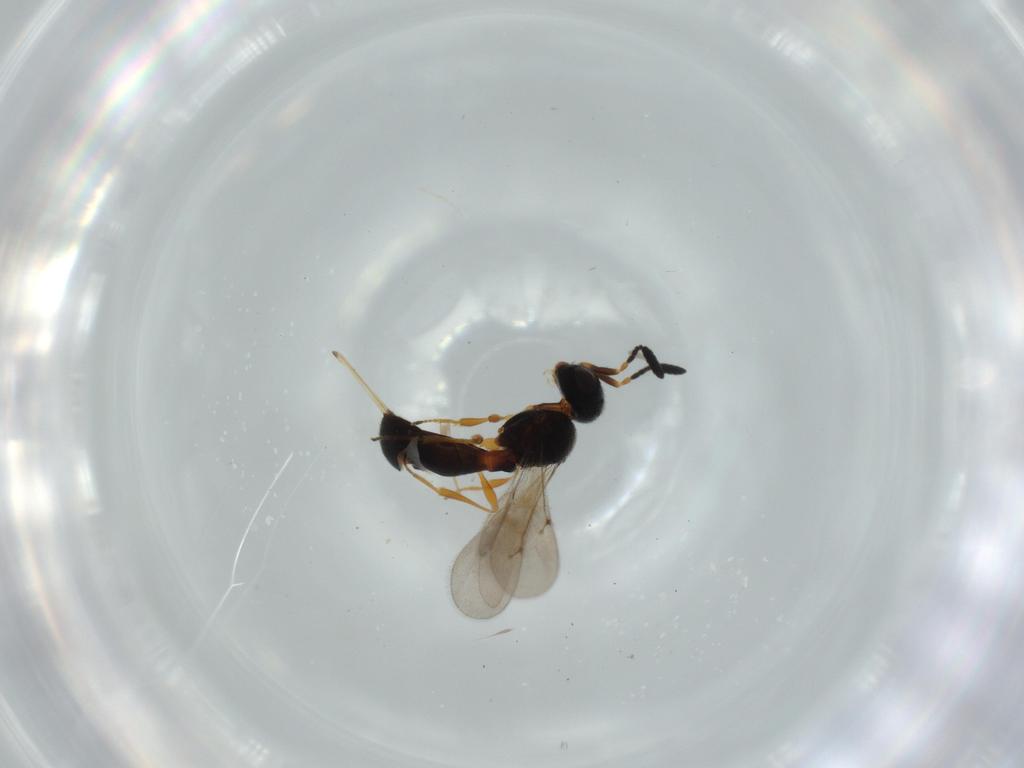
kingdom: Animalia
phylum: Arthropoda
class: Insecta
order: Hymenoptera
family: Scelionidae
